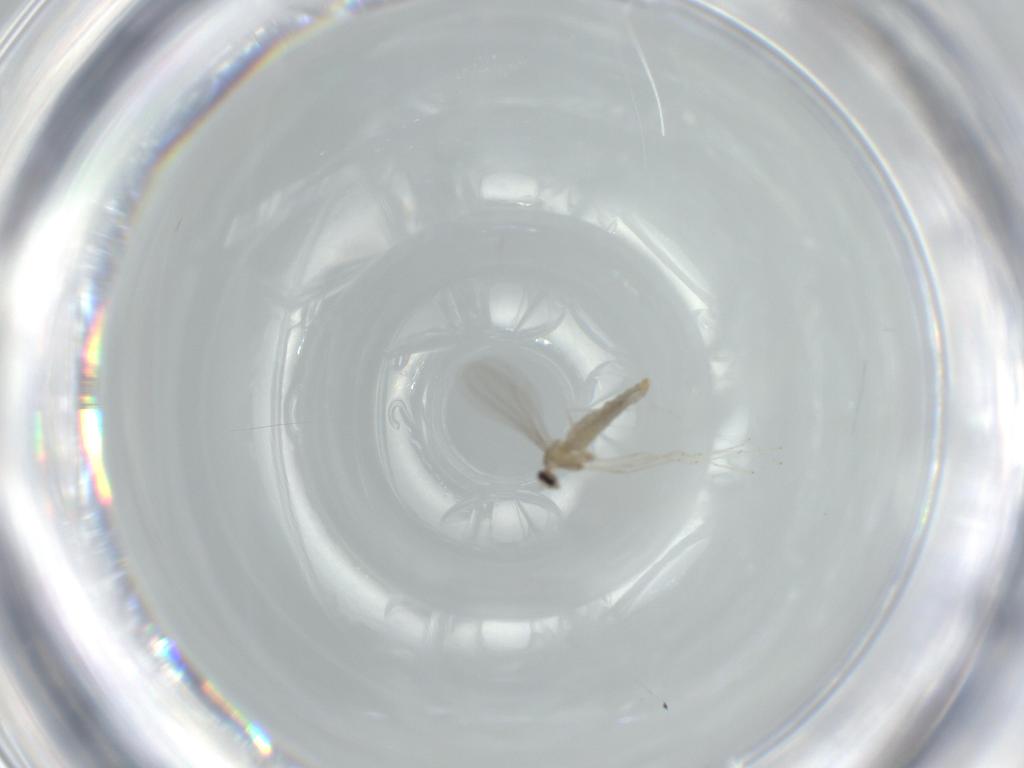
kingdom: Animalia
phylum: Arthropoda
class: Insecta
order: Diptera
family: Cecidomyiidae
